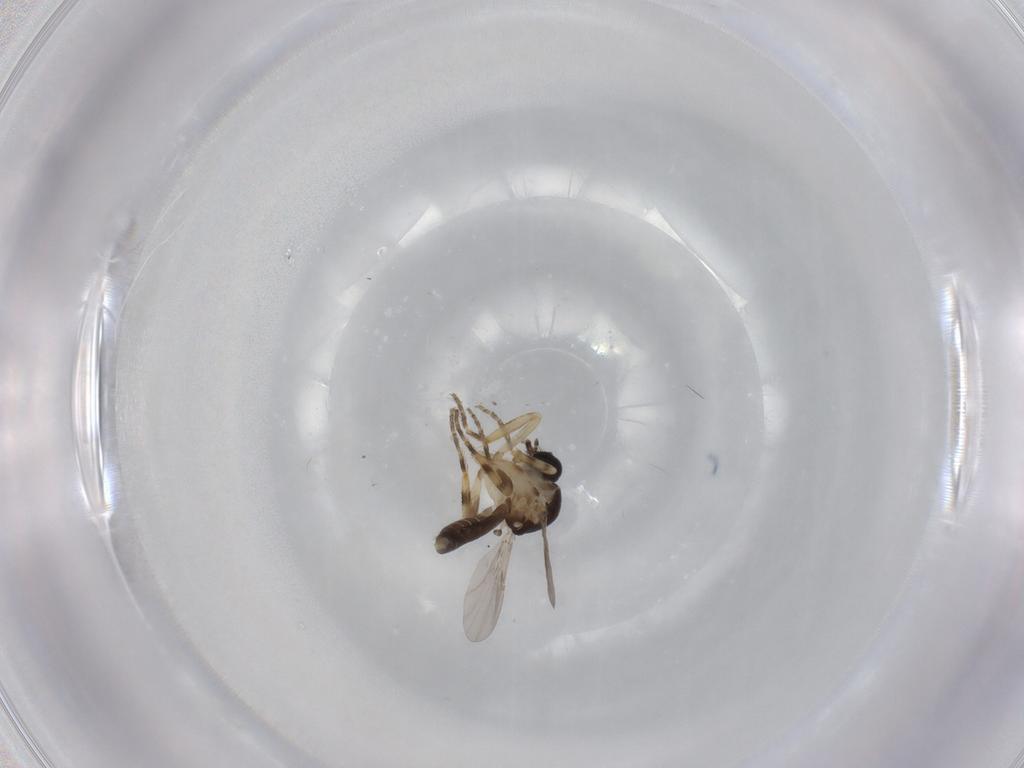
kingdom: Animalia
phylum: Arthropoda
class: Insecta
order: Diptera
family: Ceratopogonidae
